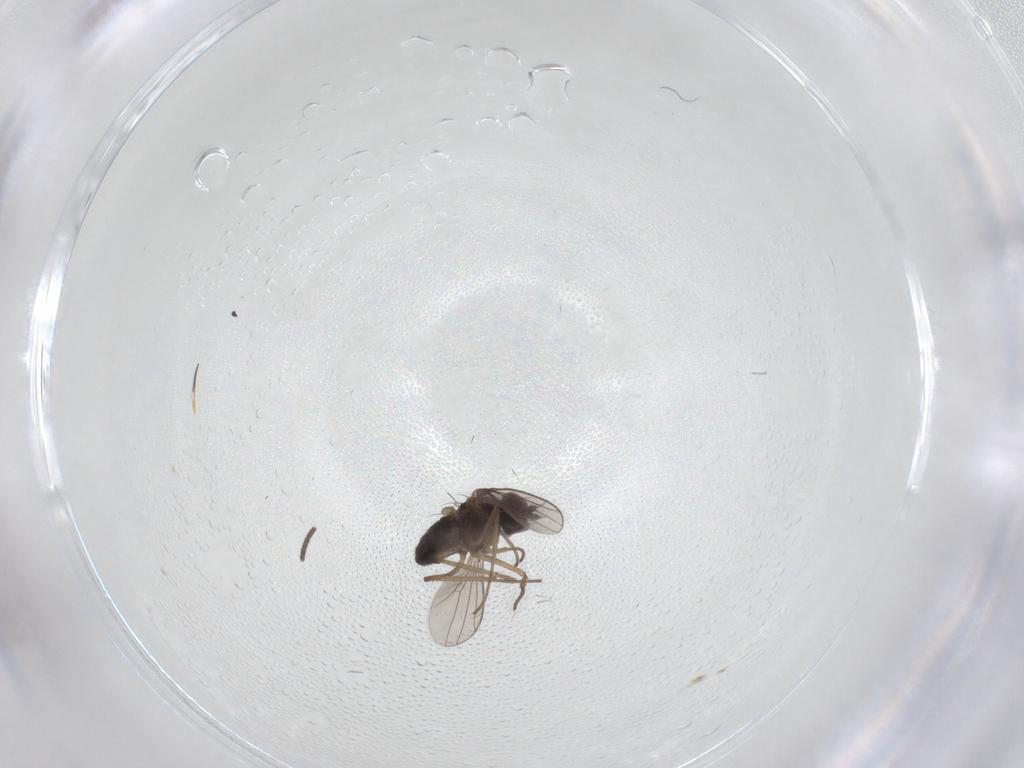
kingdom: Animalia
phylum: Arthropoda
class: Insecta
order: Diptera
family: Dolichopodidae
